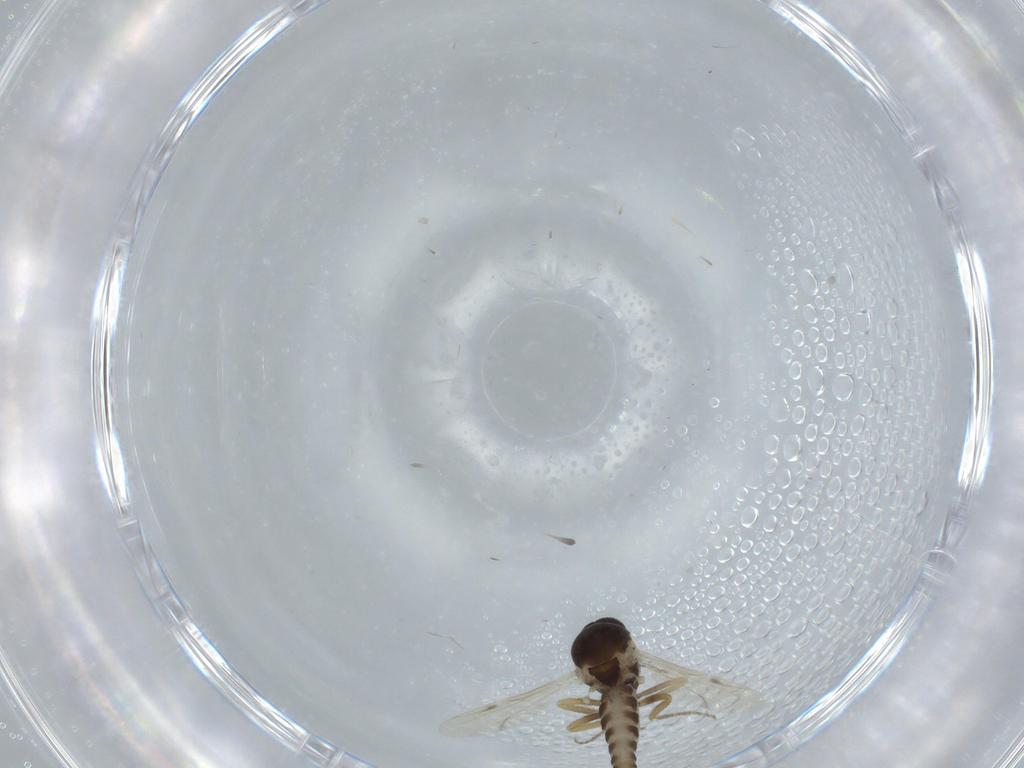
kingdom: Animalia
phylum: Arthropoda
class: Insecta
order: Diptera
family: Ceratopogonidae
